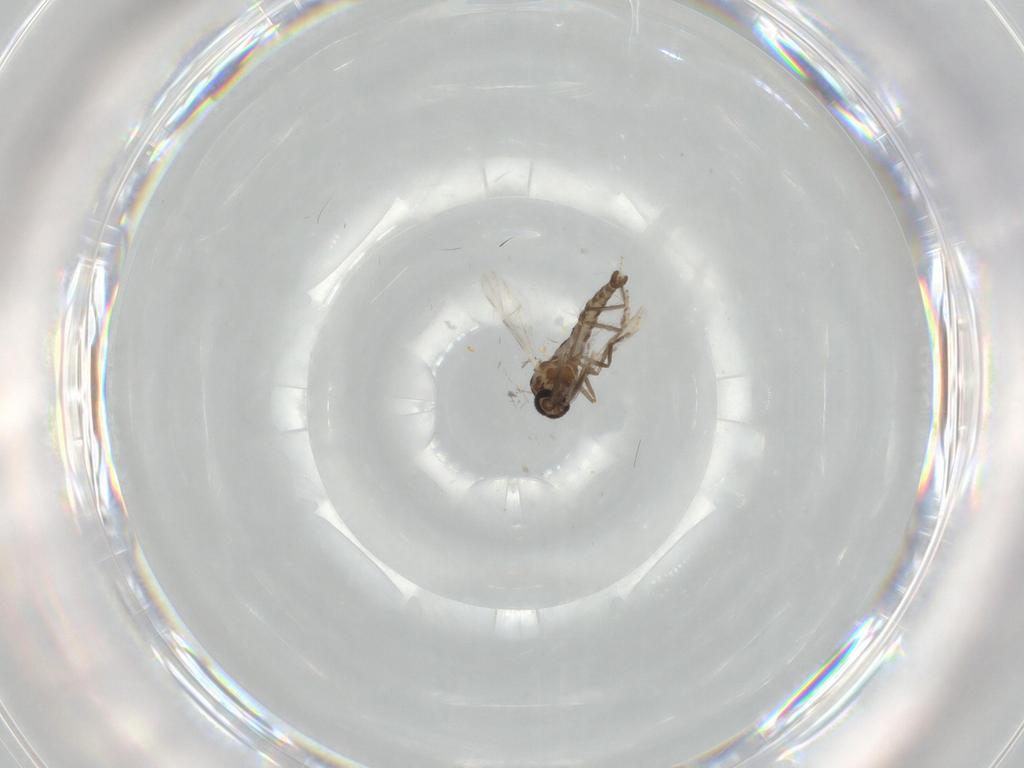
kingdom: Animalia
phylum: Arthropoda
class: Insecta
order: Diptera
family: Ceratopogonidae
